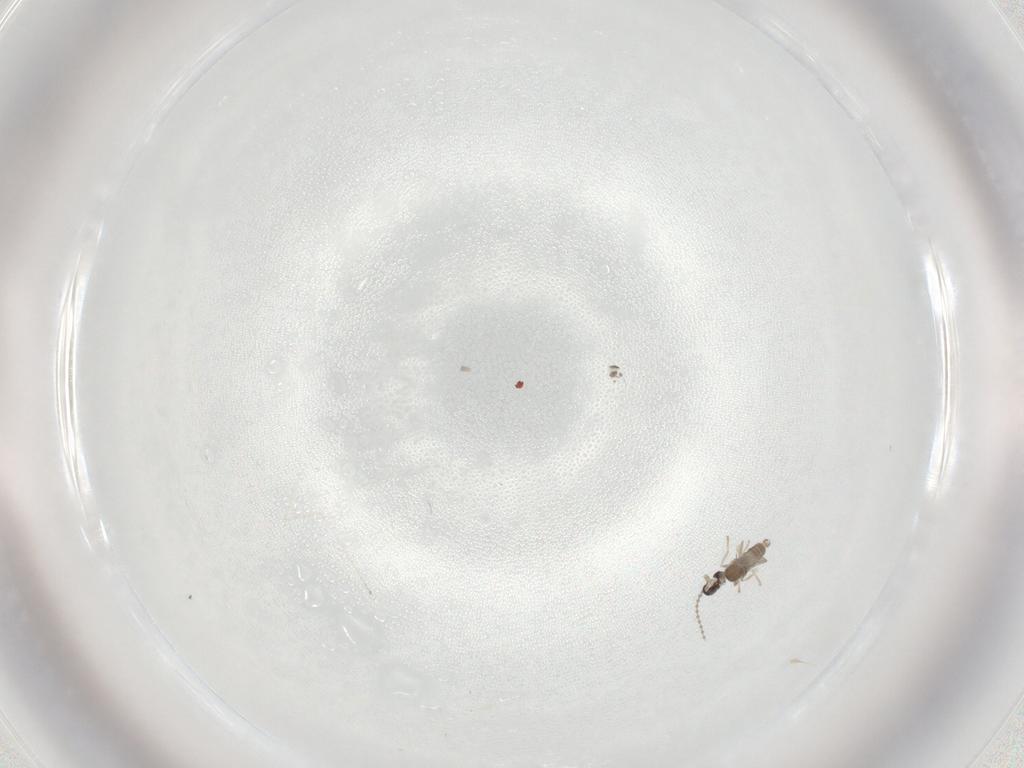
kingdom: Animalia
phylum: Arthropoda
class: Insecta
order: Diptera
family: Cecidomyiidae
